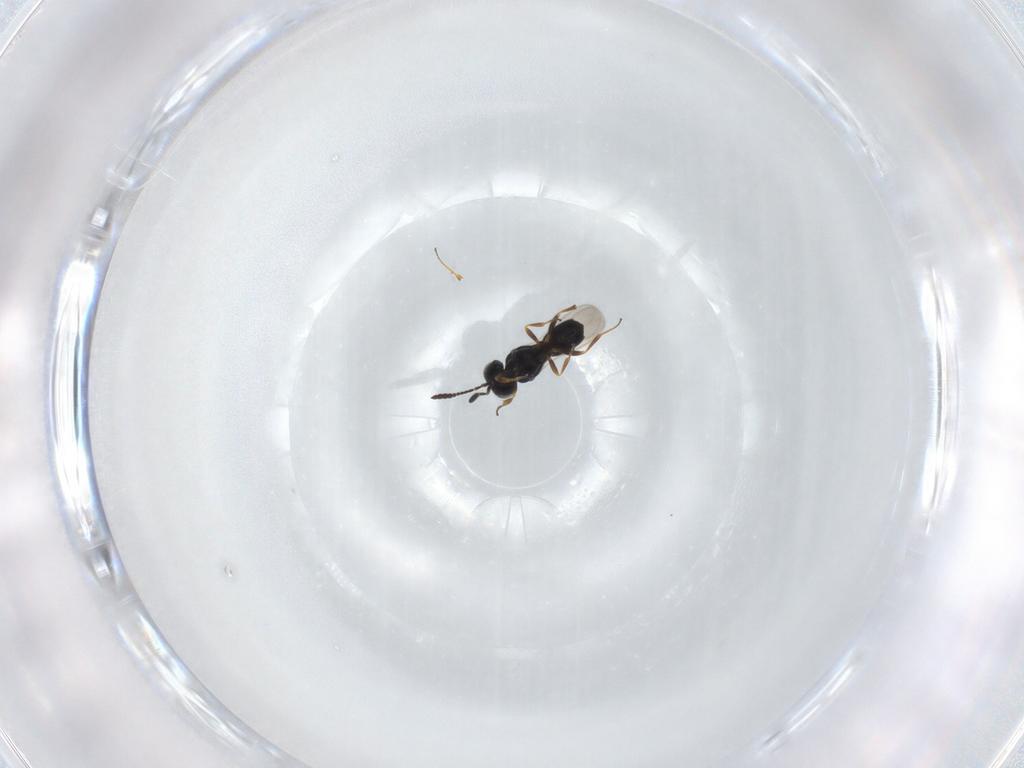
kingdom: Animalia
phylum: Arthropoda
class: Insecta
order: Hymenoptera
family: Scelionidae
